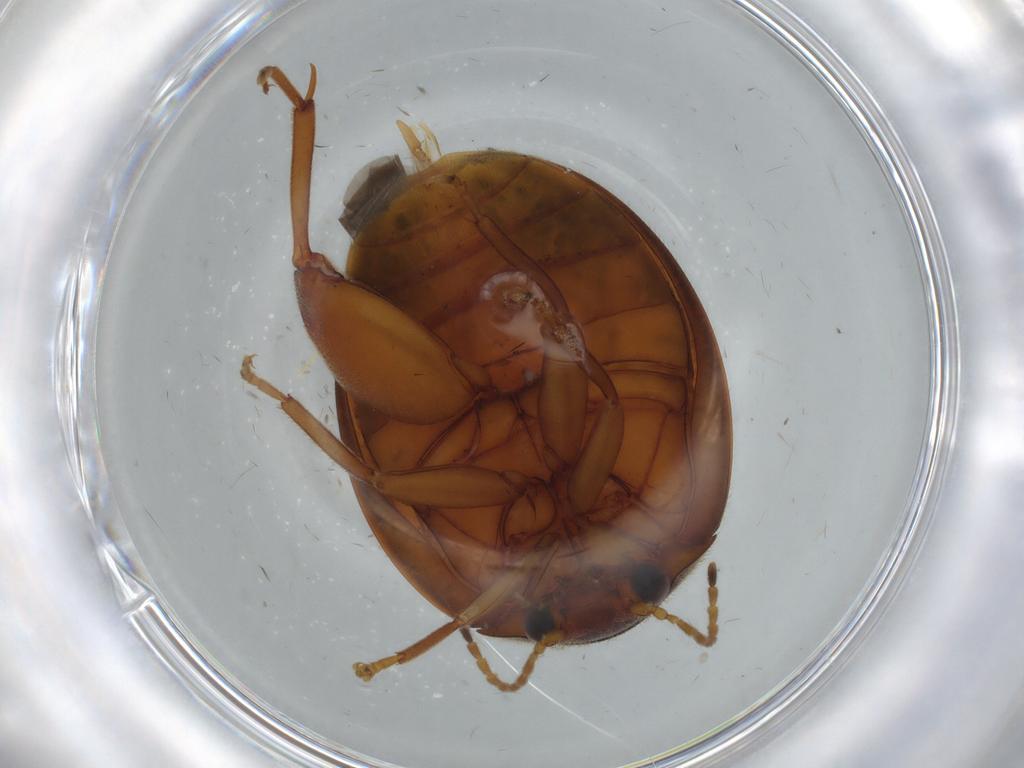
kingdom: Animalia
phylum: Arthropoda
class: Insecta
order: Coleoptera
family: Scirtidae
